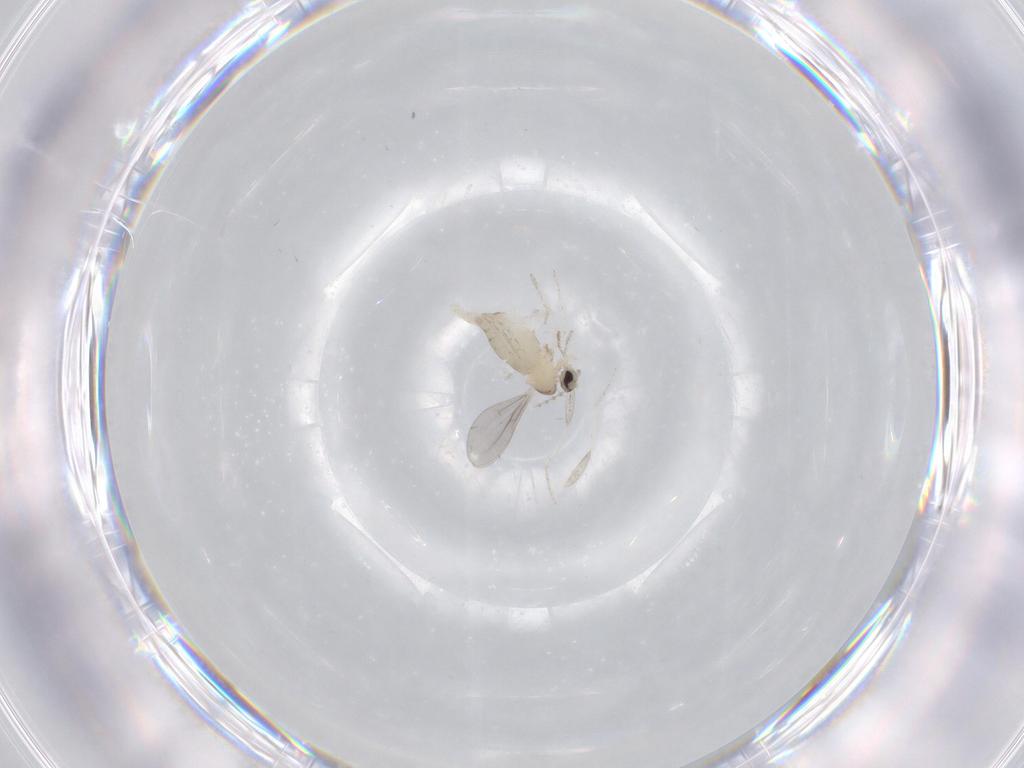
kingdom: Animalia
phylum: Arthropoda
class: Insecta
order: Diptera
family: Cecidomyiidae
